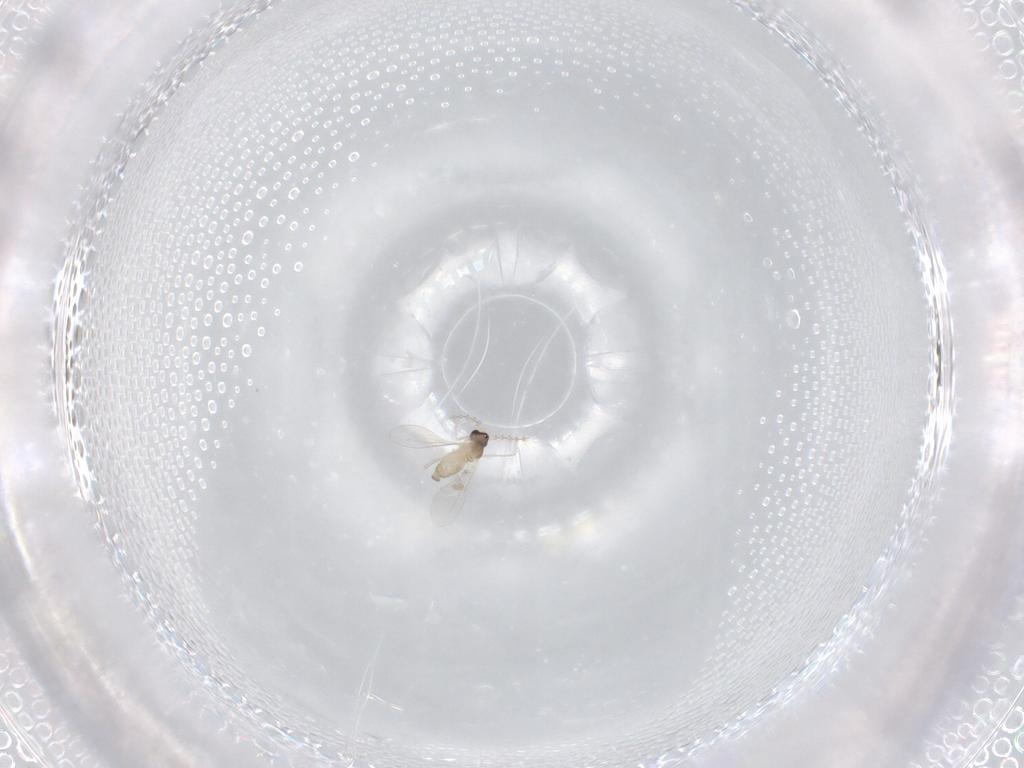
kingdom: Animalia
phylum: Arthropoda
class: Insecta
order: Diptera
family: Cecidomyiidae
